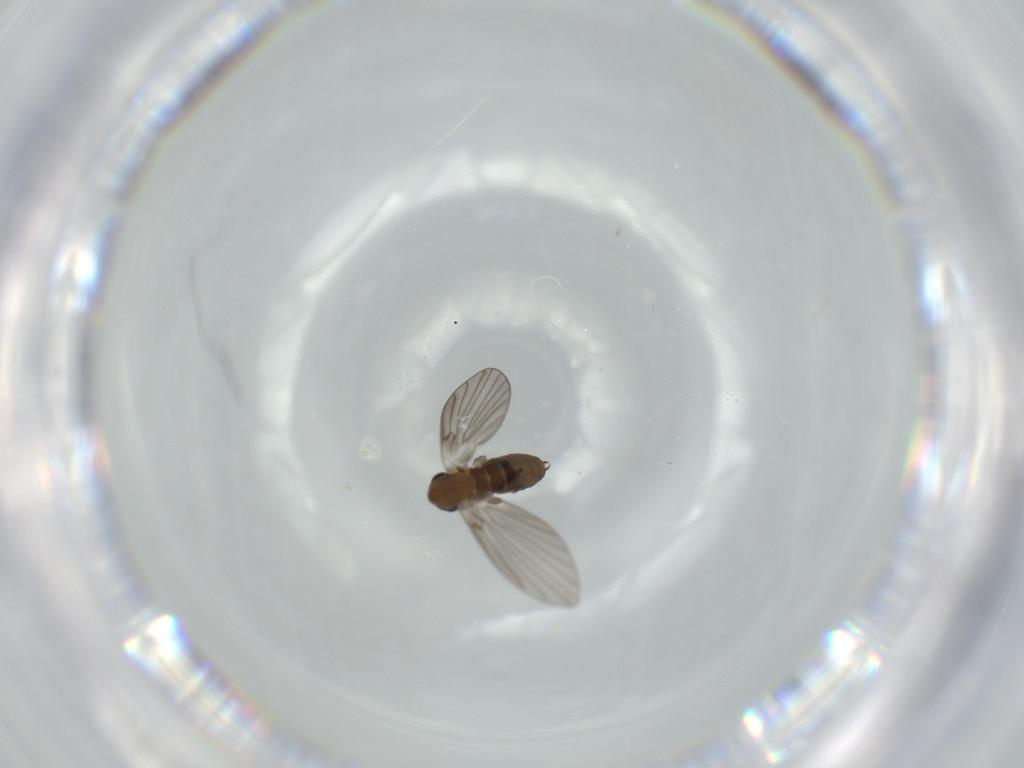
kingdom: Animalia
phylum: Arthropoda
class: Insecta
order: Diptera
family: Psychodidae
